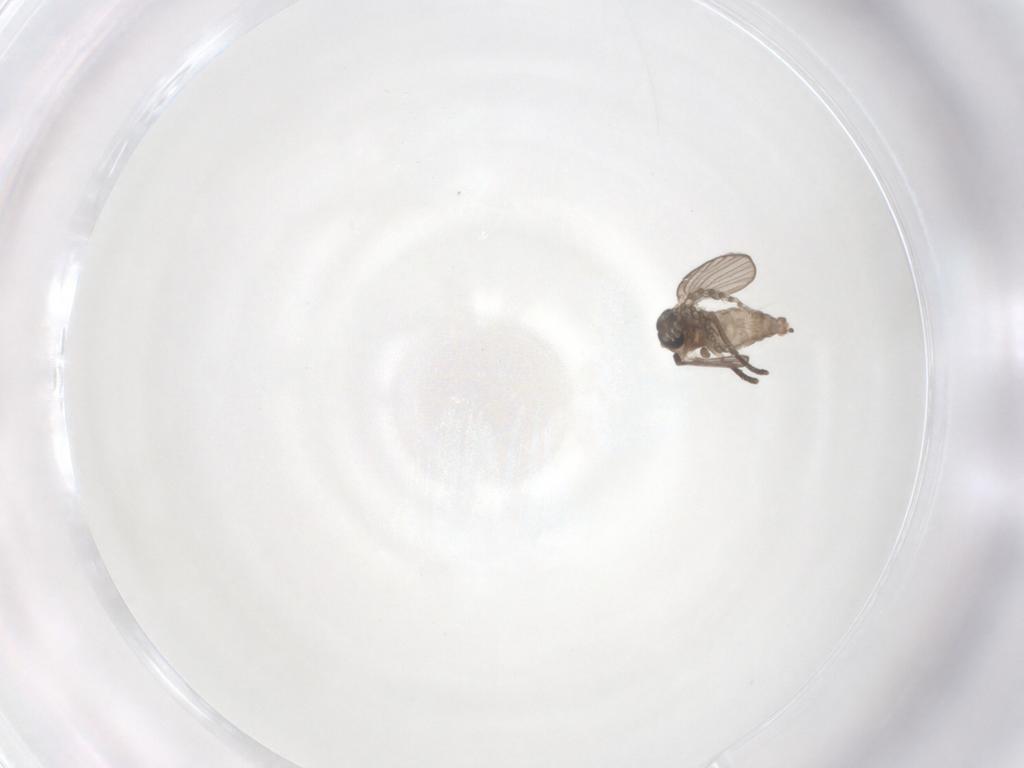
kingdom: Animalia
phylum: Arthropoda
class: Insecta
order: Diptera
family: Psychodidae
